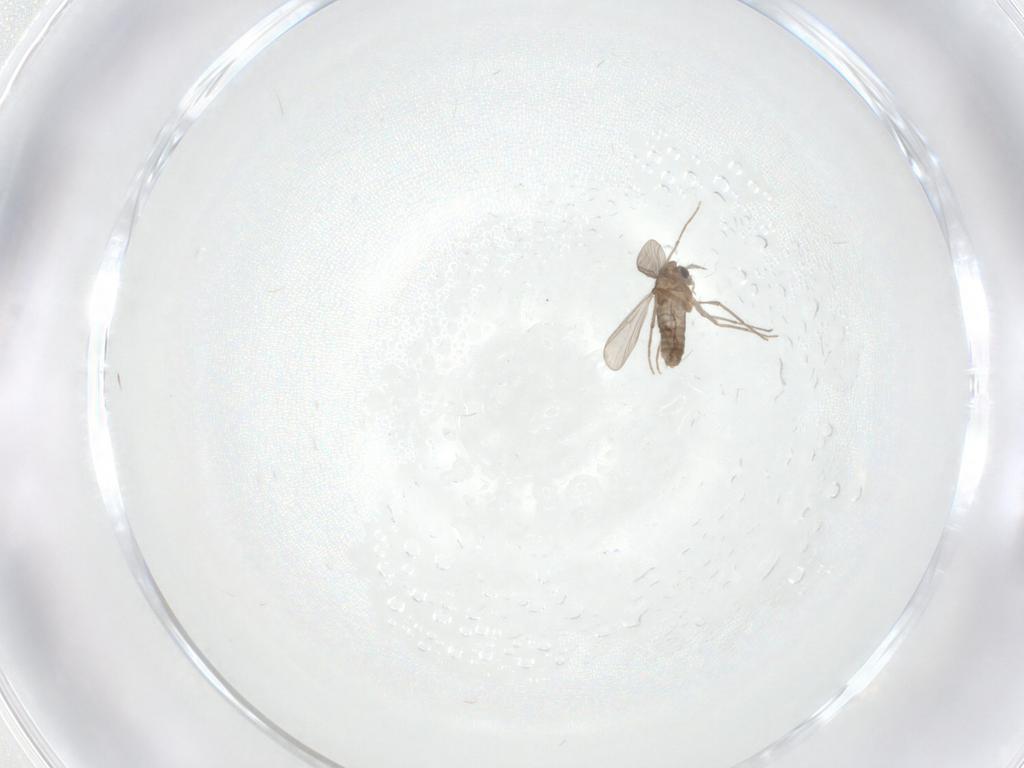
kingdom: Animalia
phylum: Arthropoda
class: Insecta
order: Diptera
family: Chironomidae
